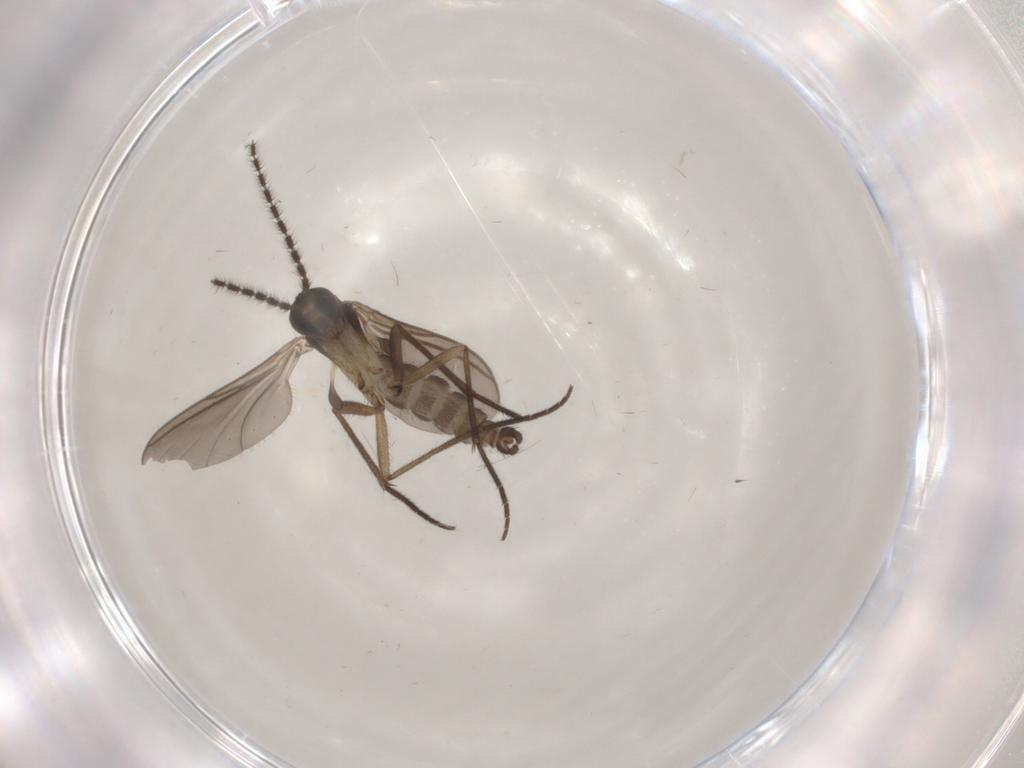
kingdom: Animalia
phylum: Arthropoda
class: Insecta
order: Diptera
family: Sciaridae
